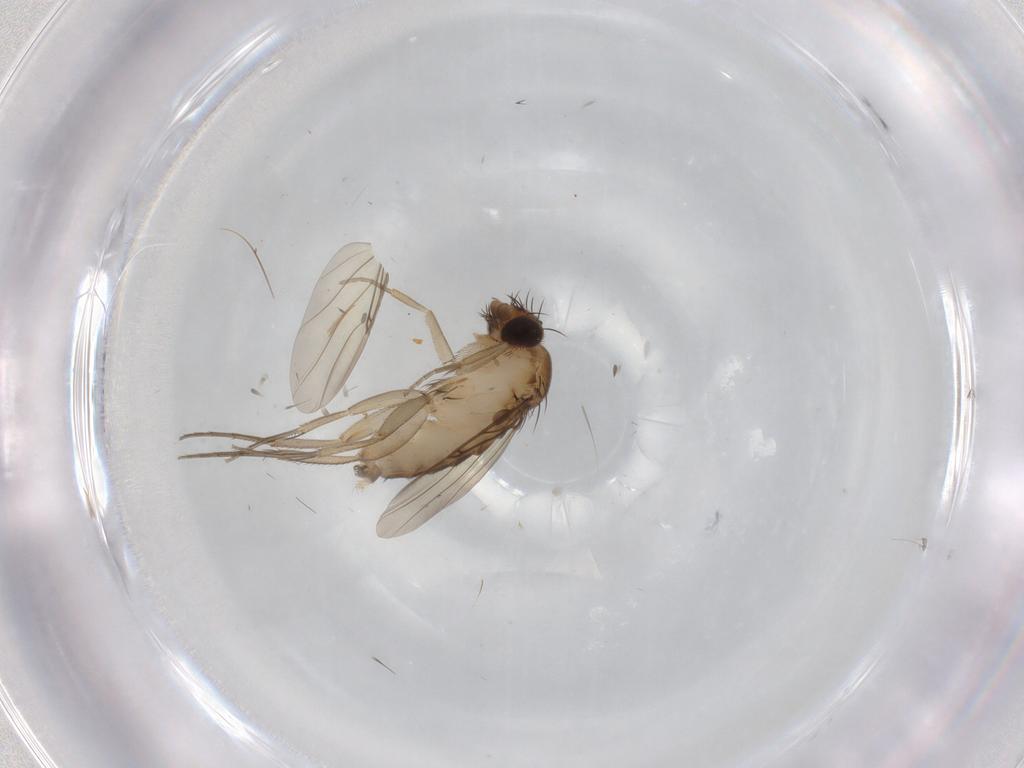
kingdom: Animalia
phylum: Arthropoda
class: Insecta
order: Diptera
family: Phoridae
